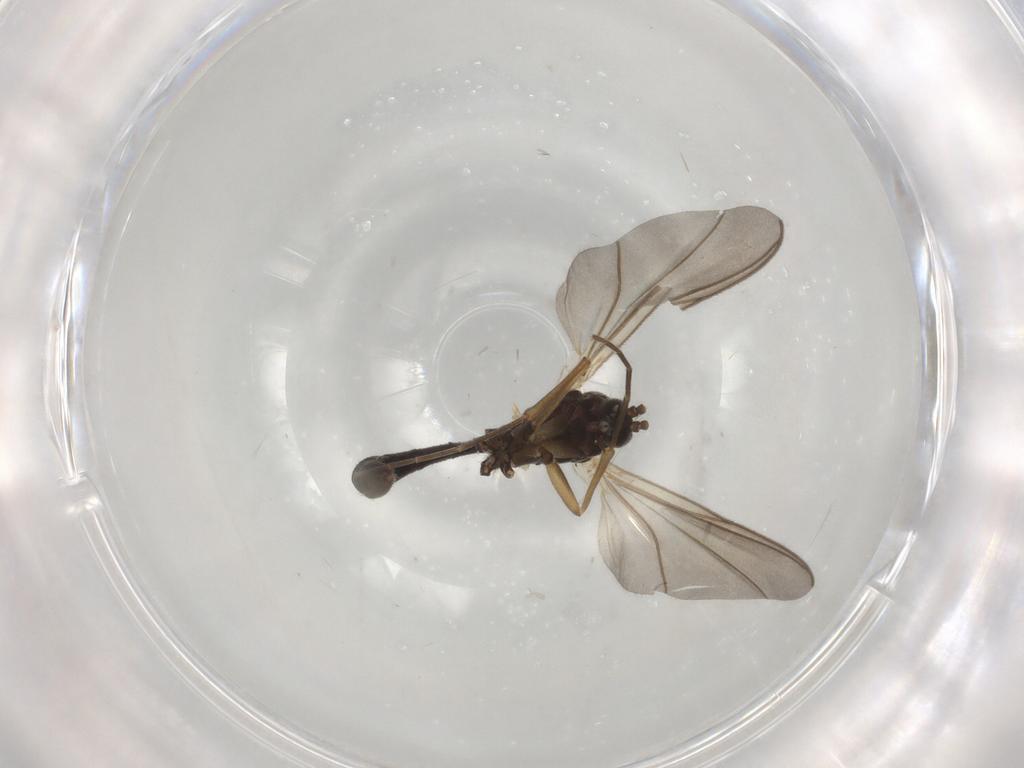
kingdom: Animalia
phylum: Arthropoda
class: Insecta
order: Diptera
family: Mycetophilidae
